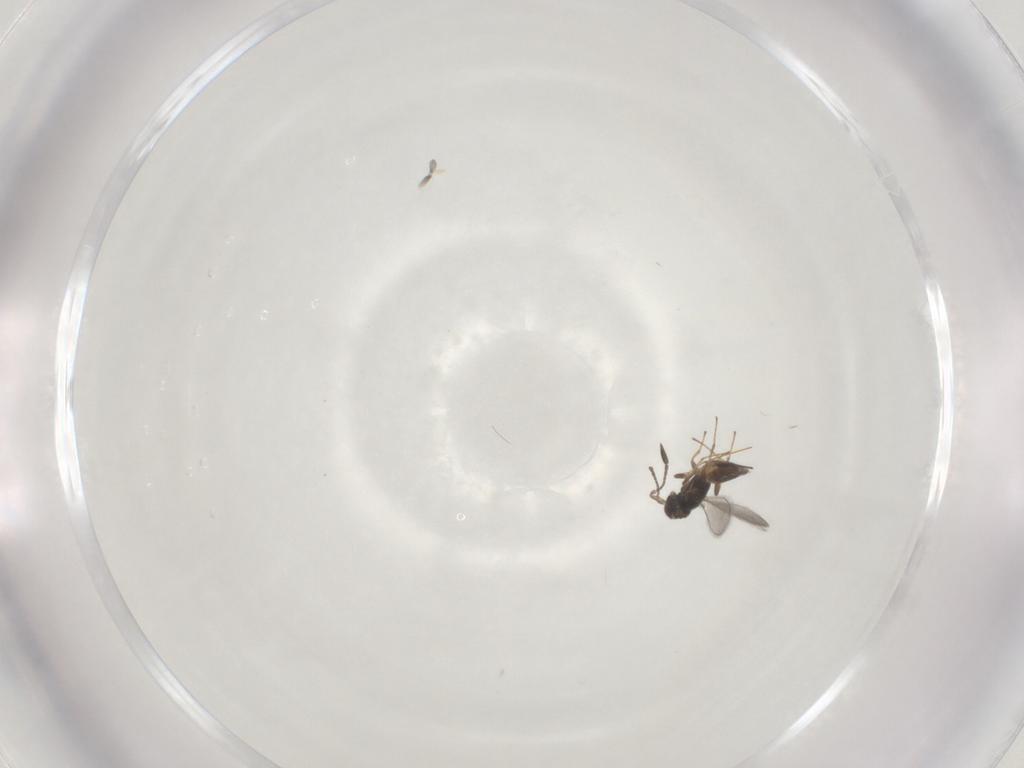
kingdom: Animalia
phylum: Arthropoda
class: Insecta
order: Hymenoptera
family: Mymaridae
